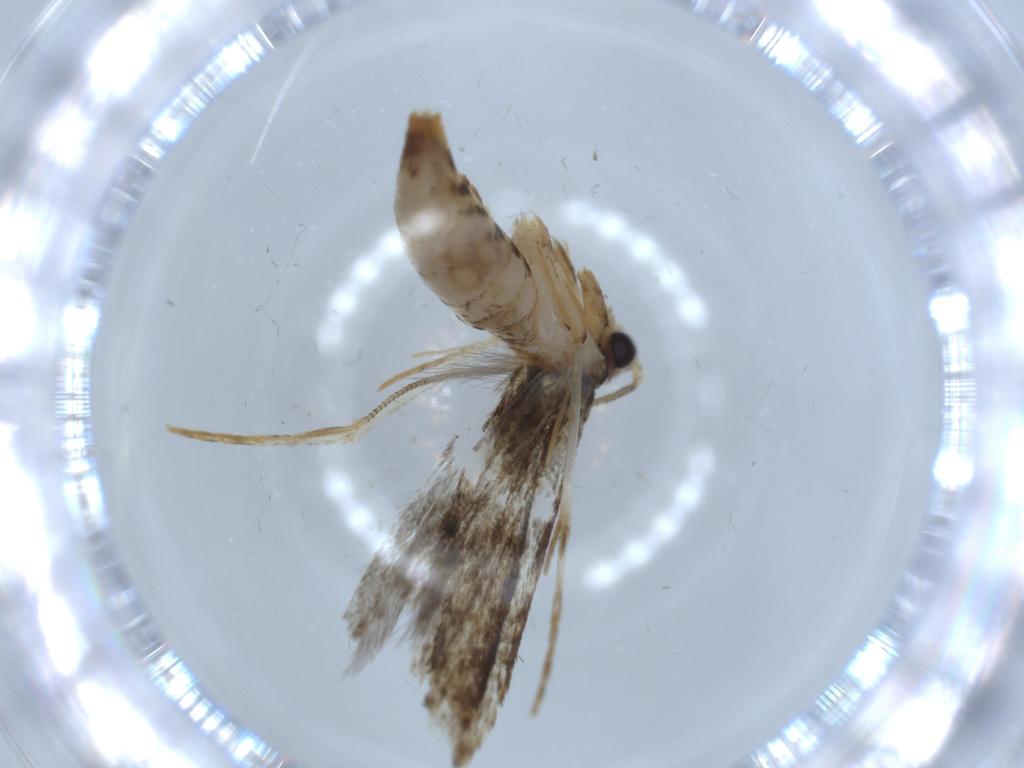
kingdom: Animalia
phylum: Arthropoda
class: Insecta
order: Lepidoptera
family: Tineidae
